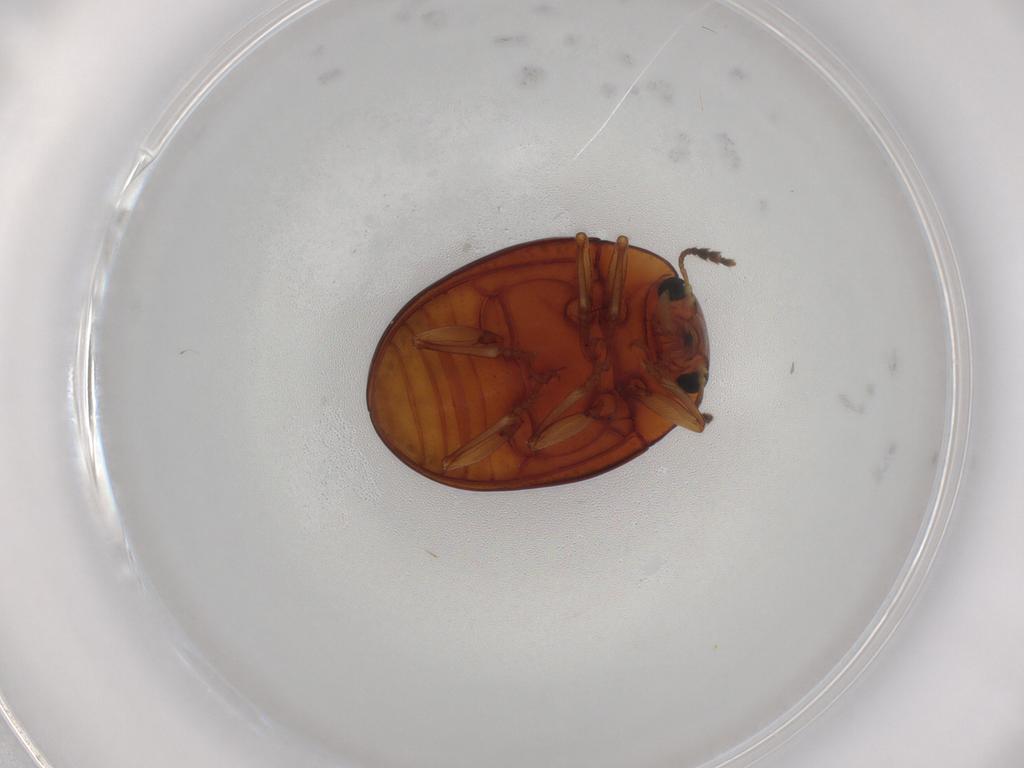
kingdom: Animalia
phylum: Arthropoda
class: Insecta
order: Coleoptera
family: Erotylidae
